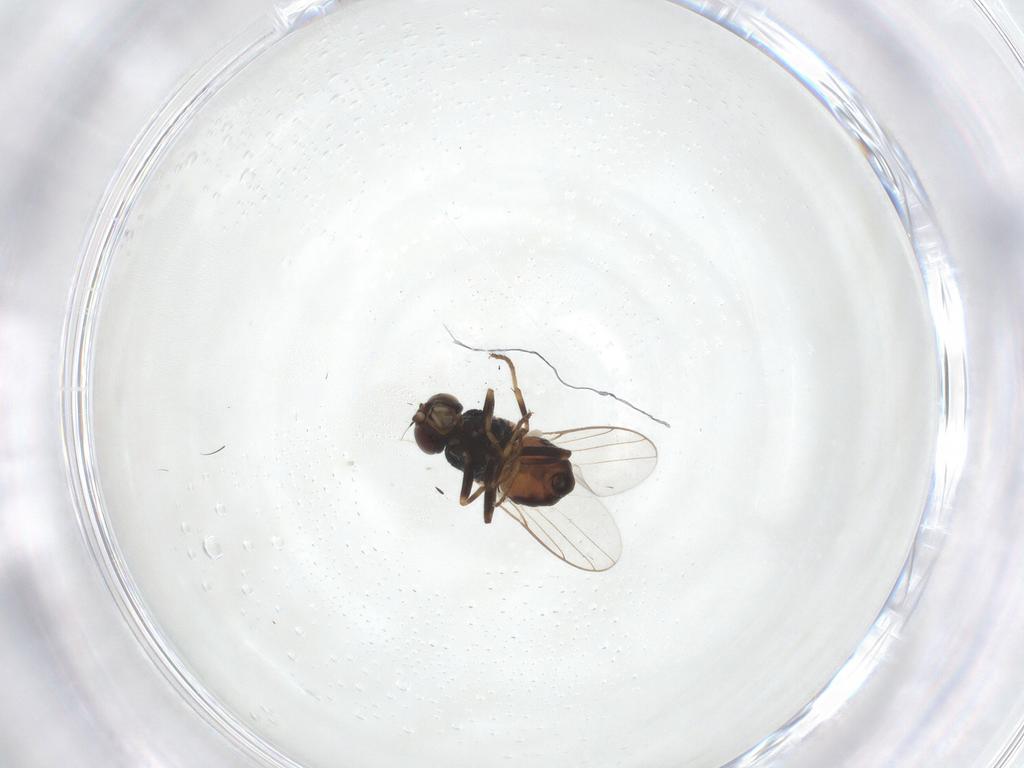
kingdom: Animalia
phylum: Arthropoda
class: Insecta
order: Diptera
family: Chloropidae
